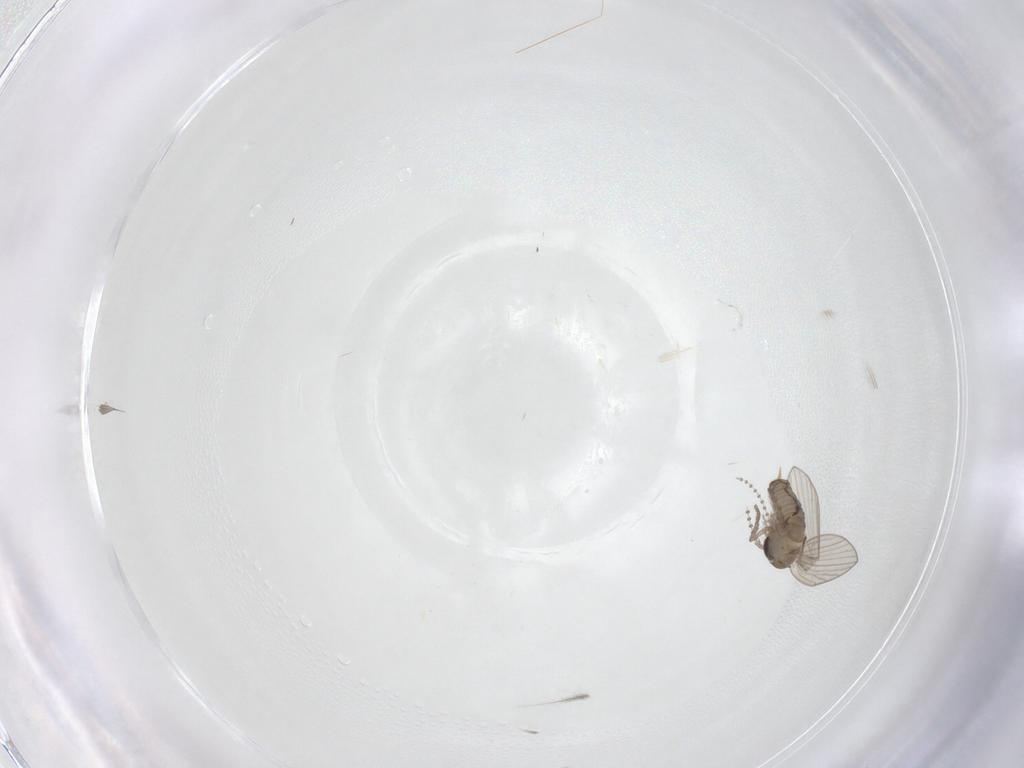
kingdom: Animalia
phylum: Arthropoda
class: Insecta
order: Diptera
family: Psychodidae
